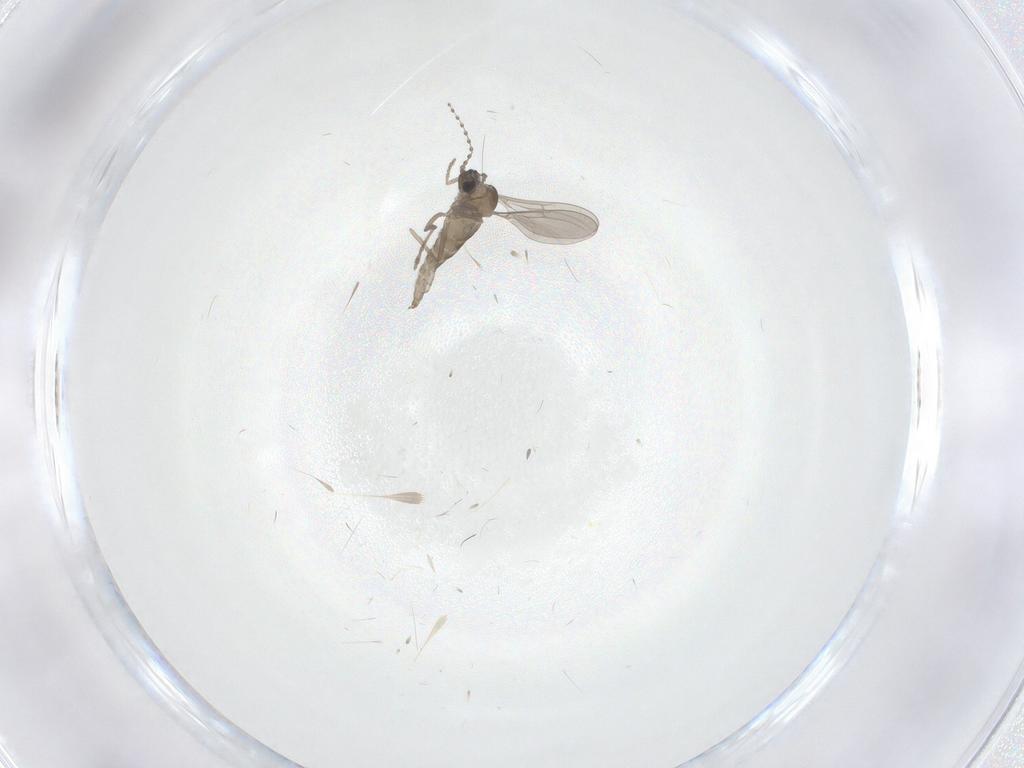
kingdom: Animalia
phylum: Arthropoda
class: Insecta
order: Diptera
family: Cecidomyiidae
